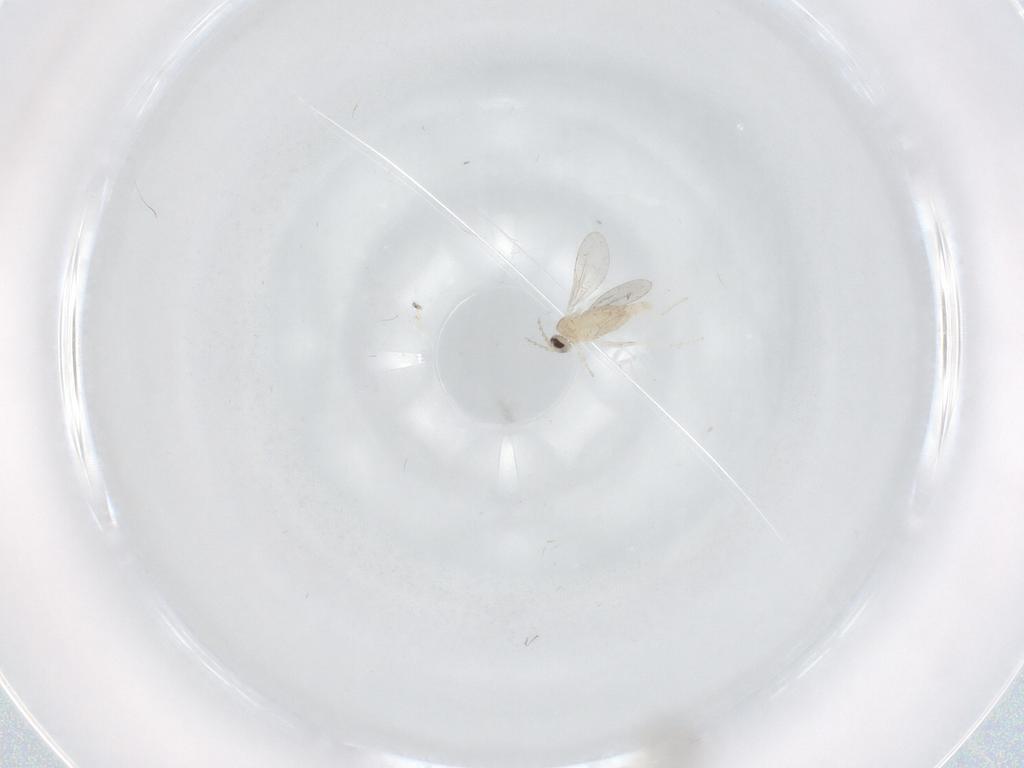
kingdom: Animalia
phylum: Arthropoda
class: Insecta
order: Diptera
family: Cecidomyiidae
